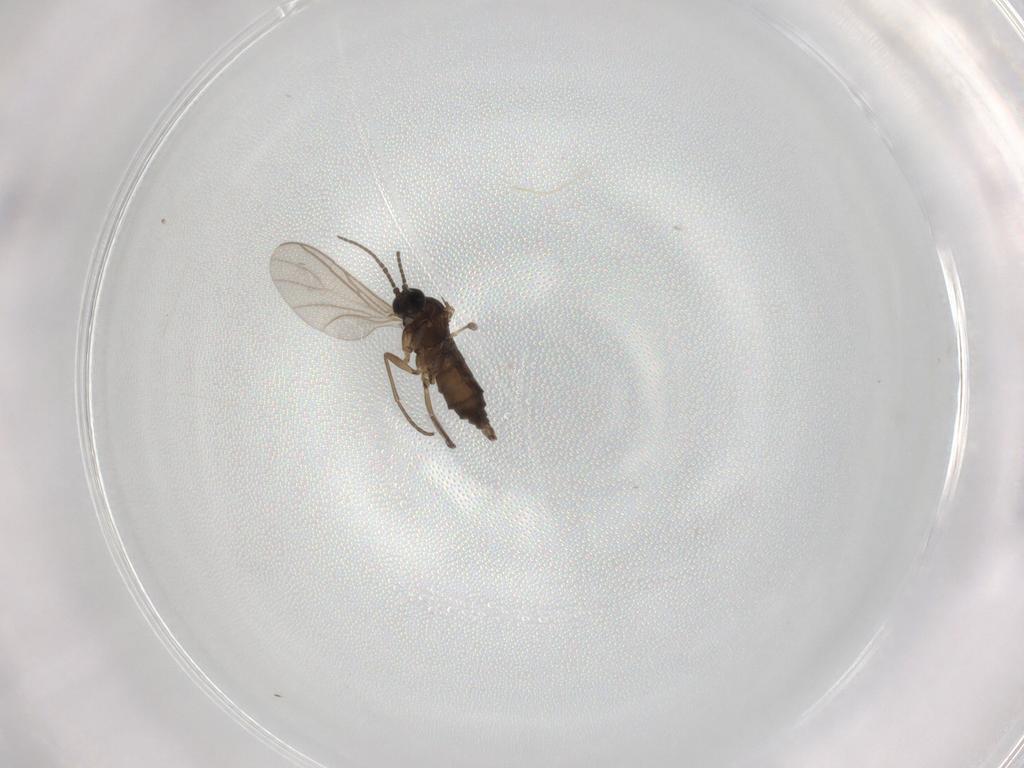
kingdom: Animalia
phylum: Arthropoda
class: Insecta
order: Diptera
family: Sciaridae
